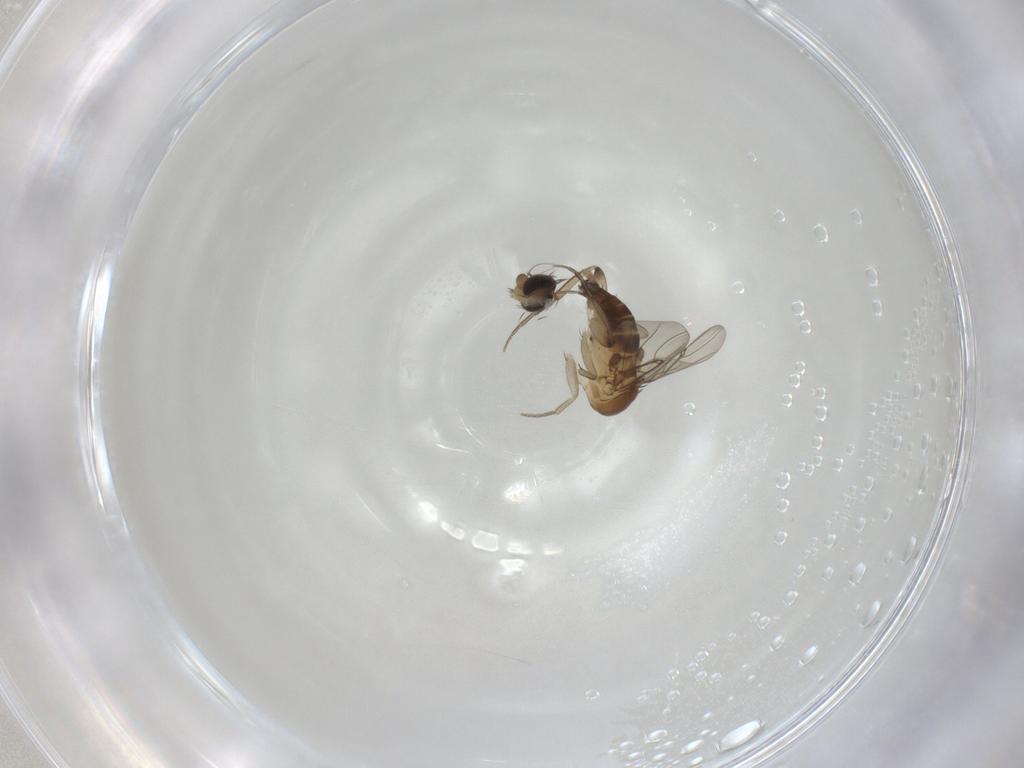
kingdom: Animalia
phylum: Arthropoda
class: Insecta
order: Diptera
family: Phoridae
